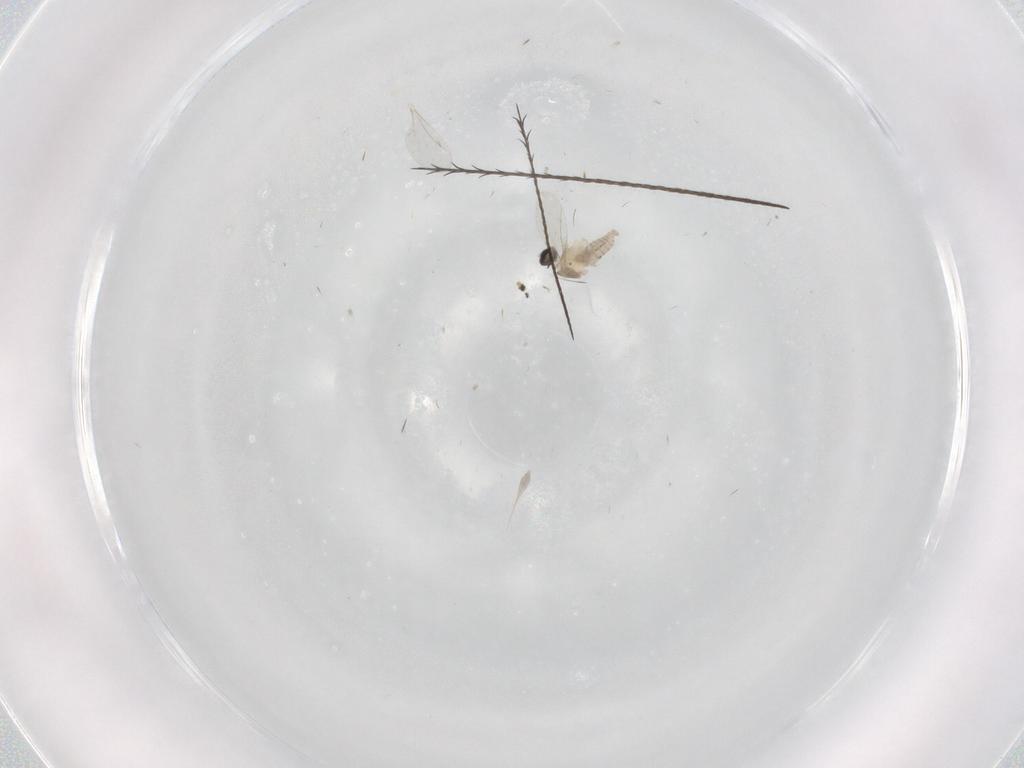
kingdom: Animalia
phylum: Arthropoda
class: Insecta
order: Diptera
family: Cecidomyiidae
